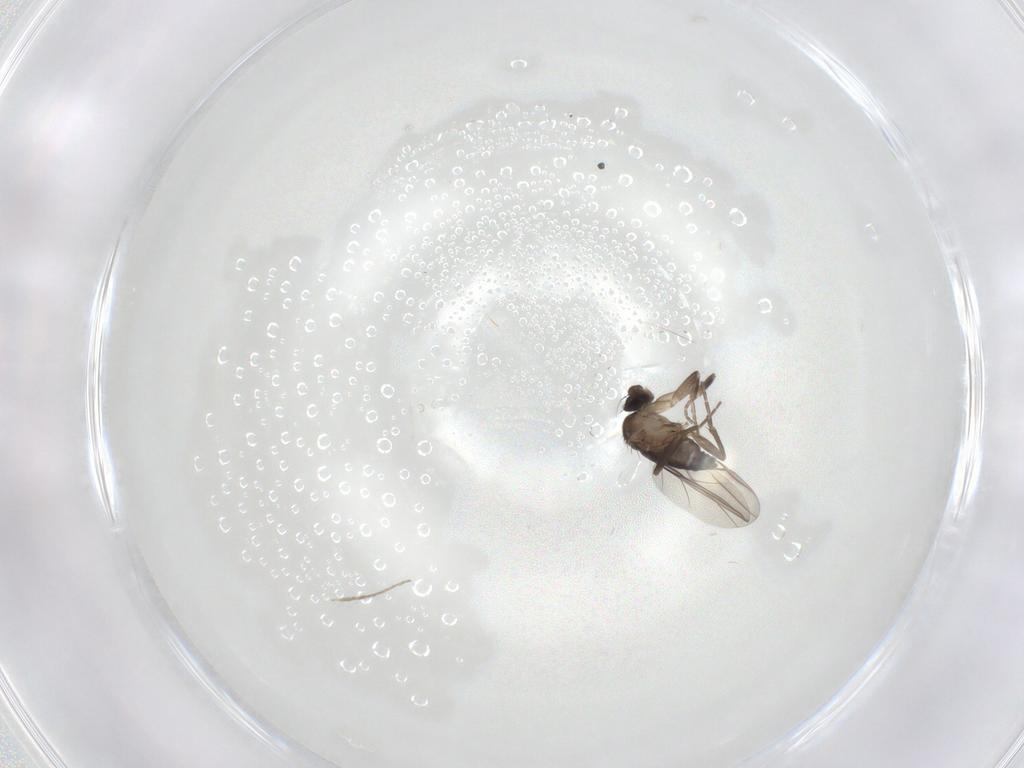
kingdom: Animalia
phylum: Arthropoda
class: Insecta
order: Diptera
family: Phoridae
